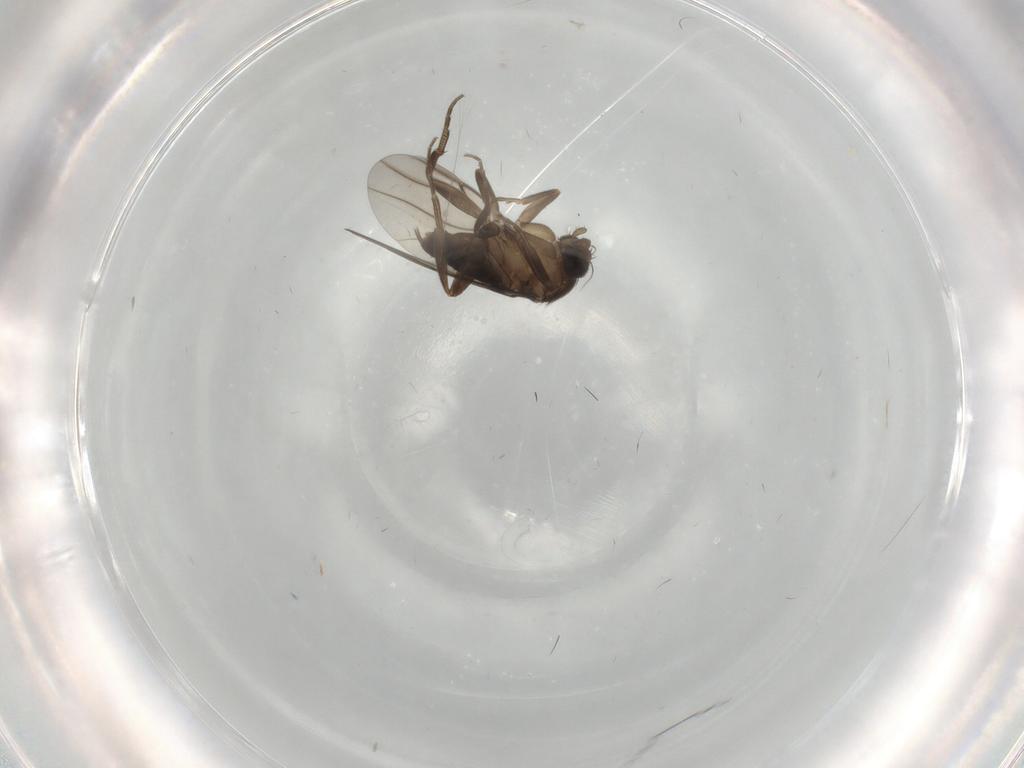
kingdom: Animalia
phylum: Arthropoda
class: Insecta
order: Diptera
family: Phoridae
